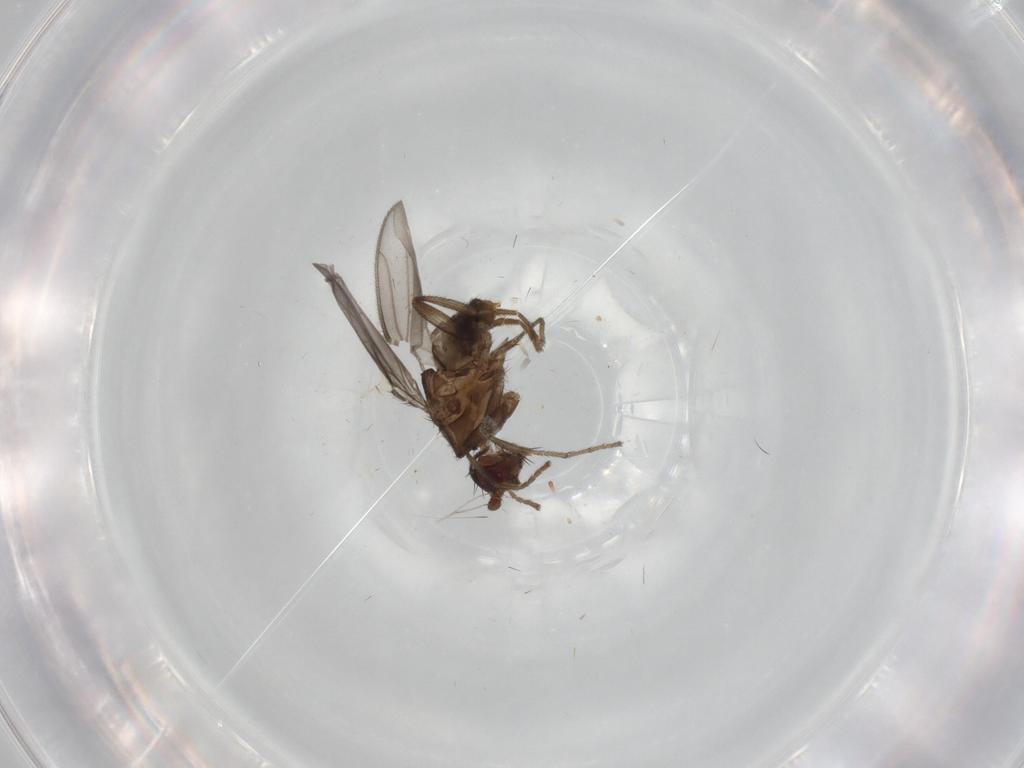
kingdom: Animalia
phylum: Arthropoda
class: Insecta
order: Diptera
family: Cecidomyiidae
